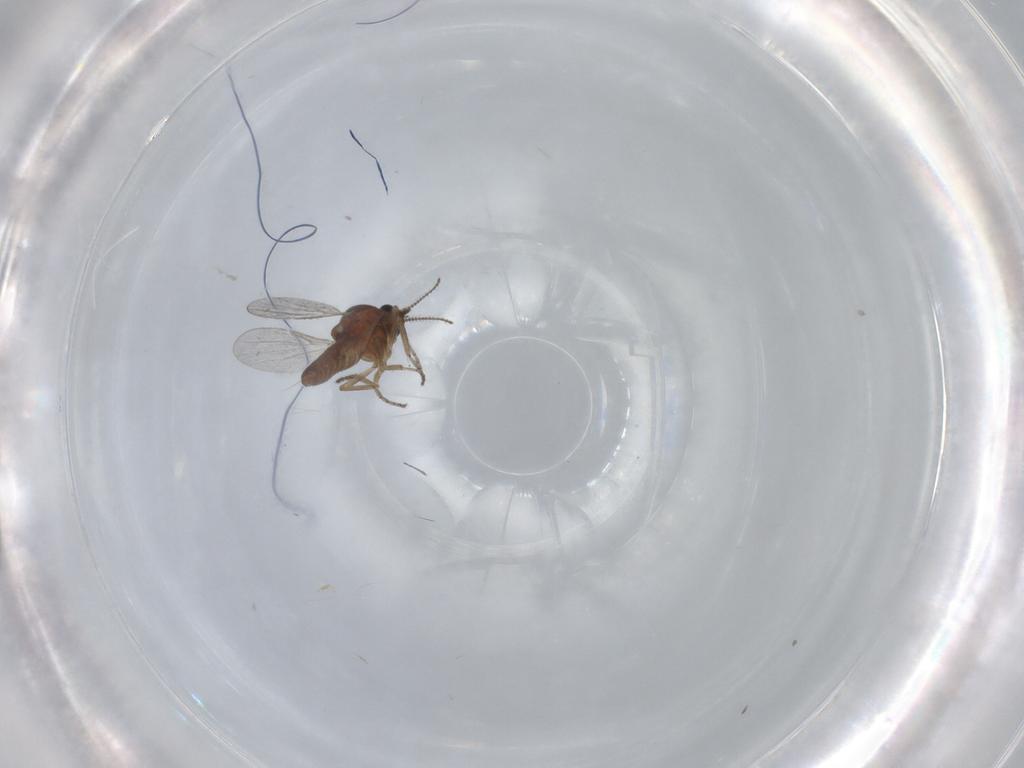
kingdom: Animalia
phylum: Arthropoda
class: Insecta
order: Diptera
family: Ceratopogonidae
